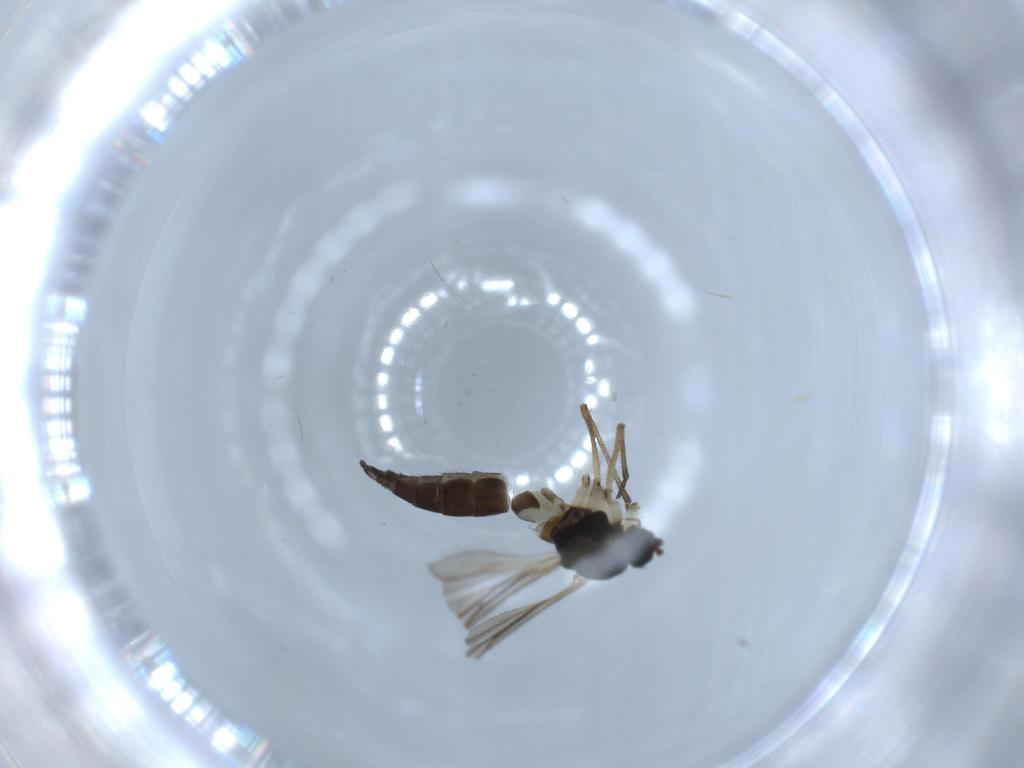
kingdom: Animalia
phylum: Arthropoda
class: Insecta
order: Diptera
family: Sciaridae
